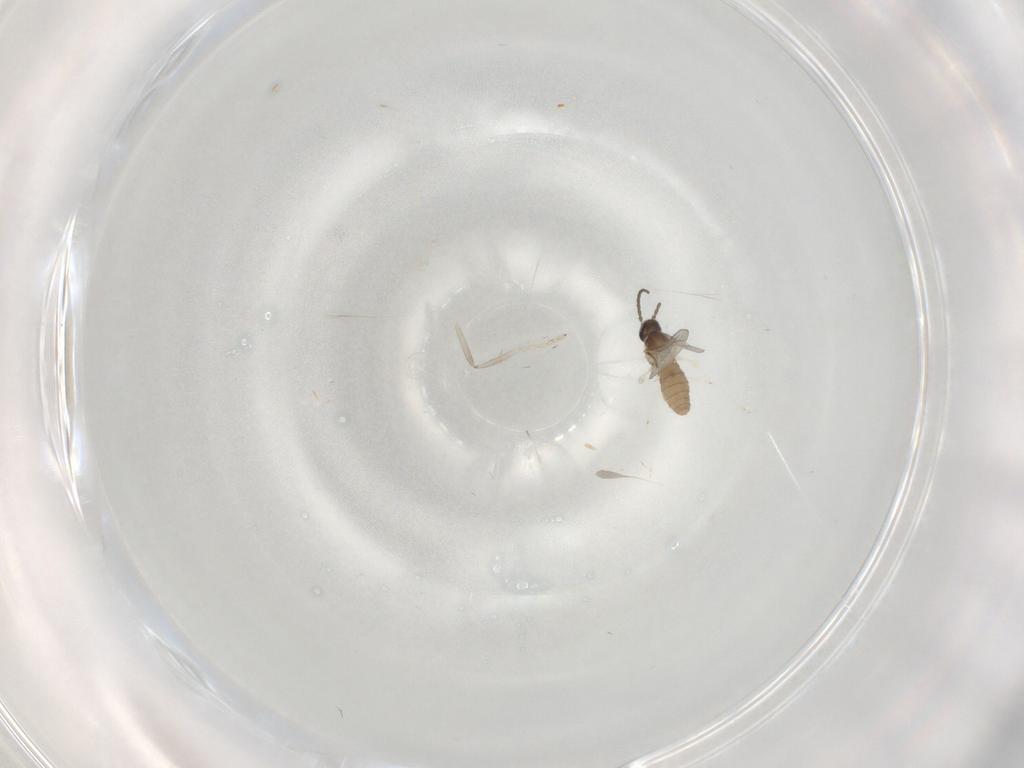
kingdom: Animalia
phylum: Arthropoda
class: Insecta
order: Diptera
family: Cecidomyiidae
